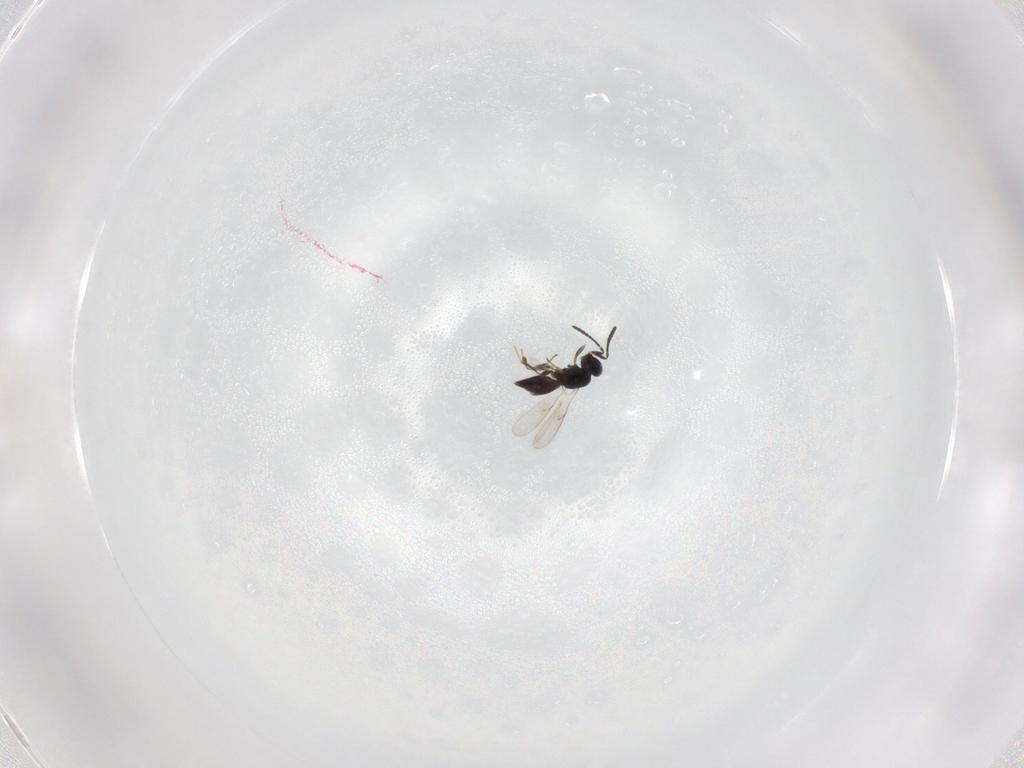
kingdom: Animalia
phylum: Arthropoda
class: Insecta
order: Hymenoptera
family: Scelionidae
